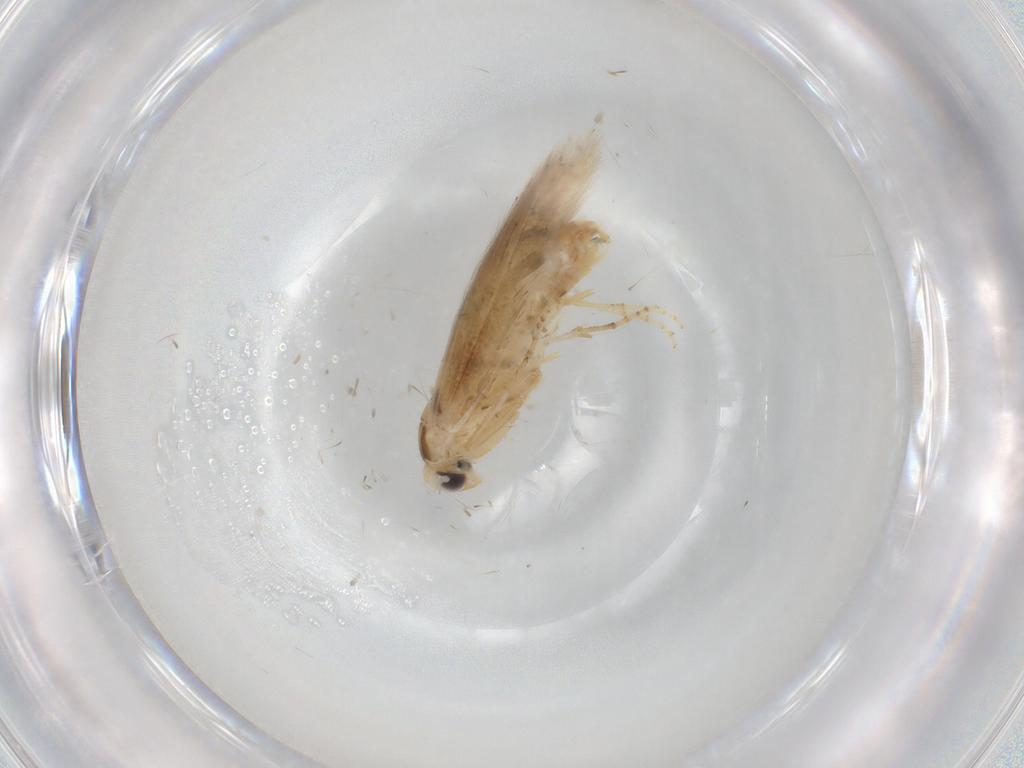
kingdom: Animalia
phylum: Arthropoda
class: Insecta
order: Lepidoptera
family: Bucculatricidae
